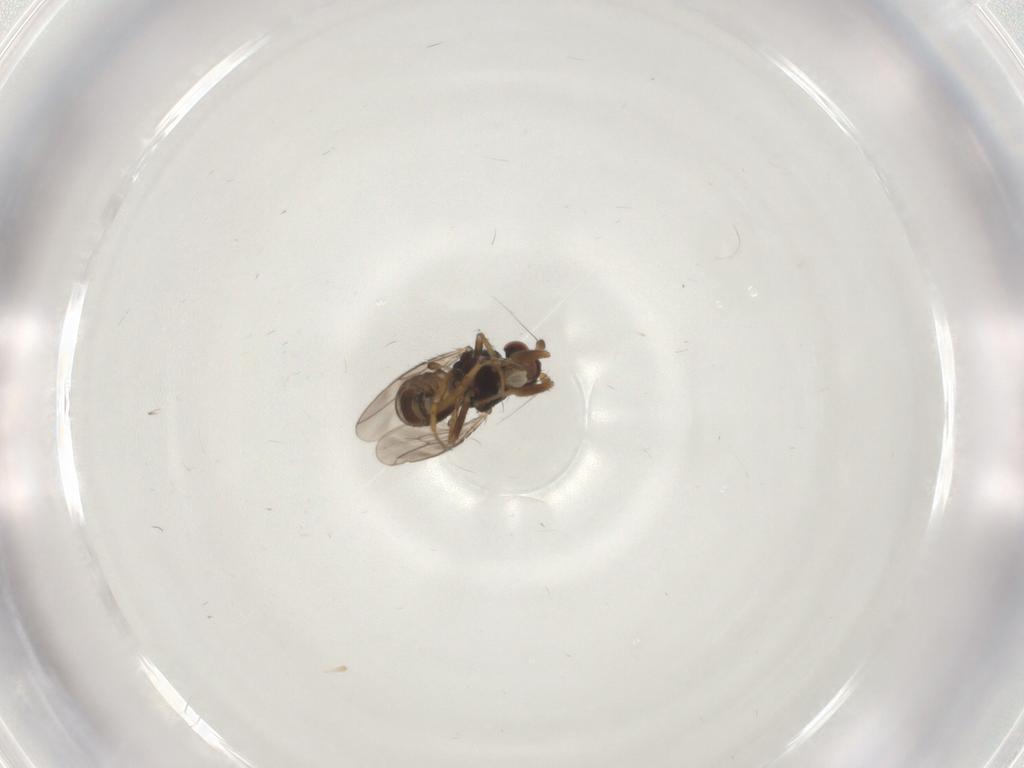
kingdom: Animalia
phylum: Arthropoda
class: Insecta
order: Diptera
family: Sphaeroceridae
